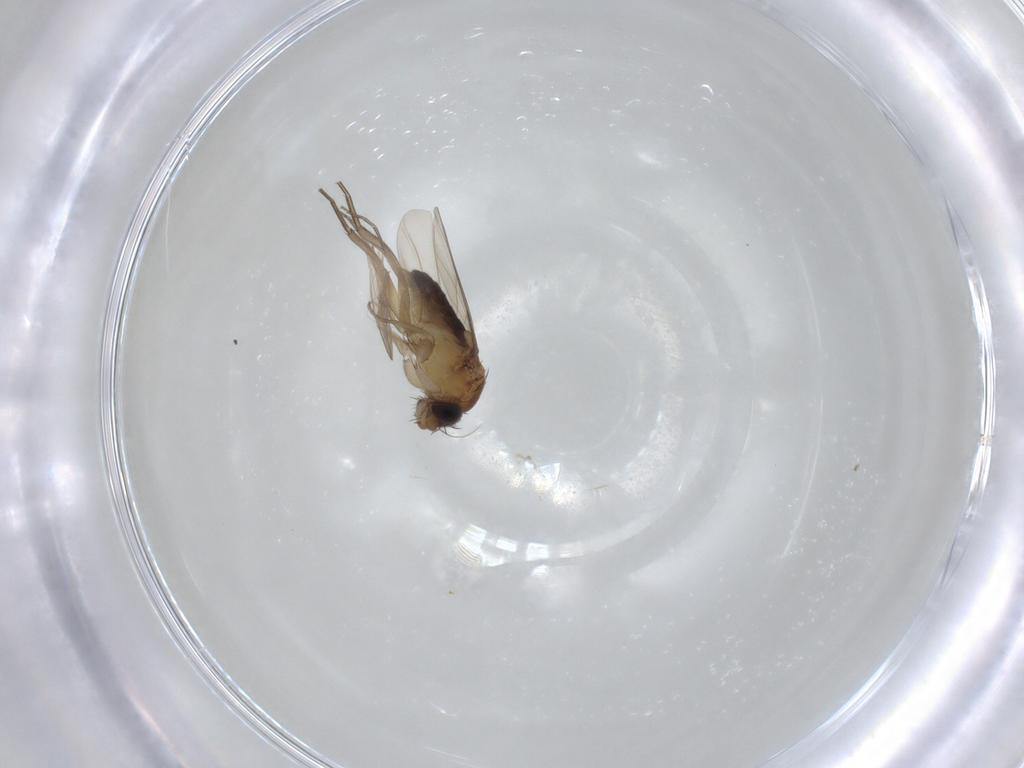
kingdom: Animalia
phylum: Arthropoda
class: Insecta
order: Diptera
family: Phoridae
